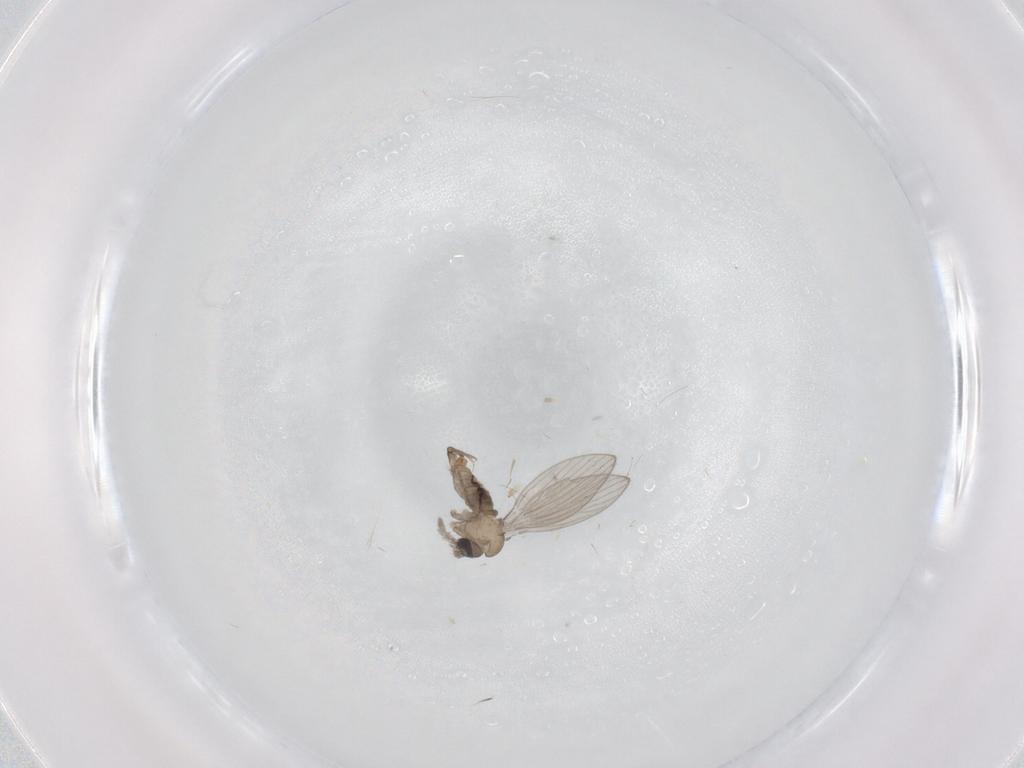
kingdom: Animalia
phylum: Arthropoda
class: Insecta
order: Diptera
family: Psychodidae
